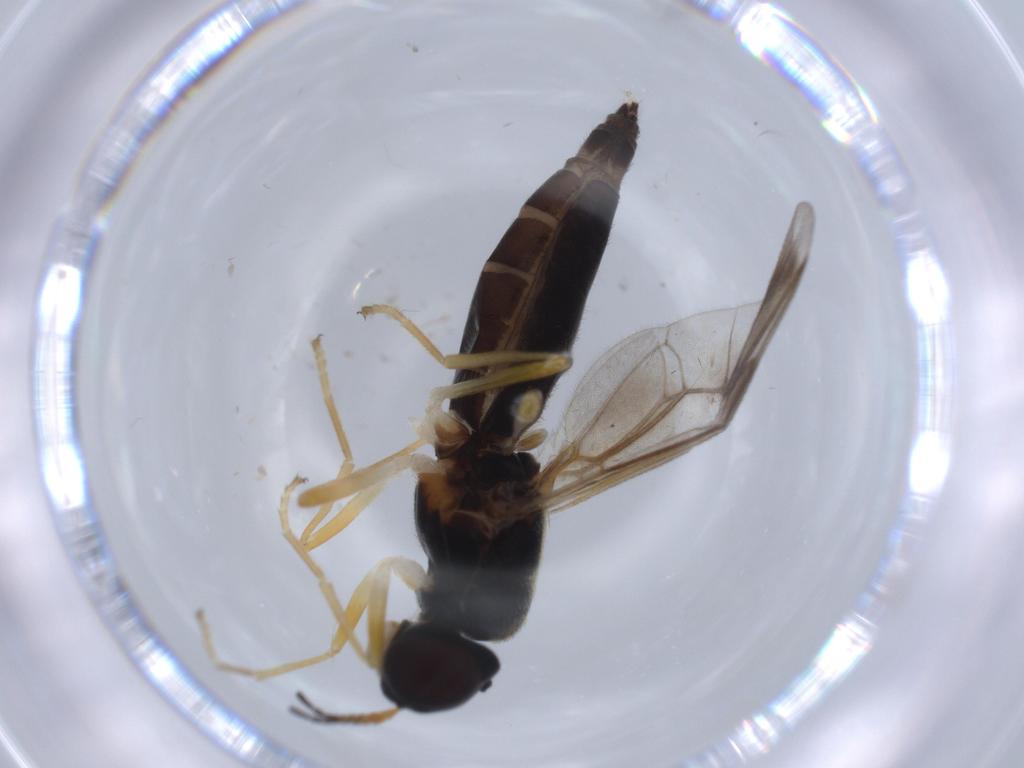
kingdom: Animalia
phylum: Arthropoda
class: Insecta
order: Diptera
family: Stratiomyidae
